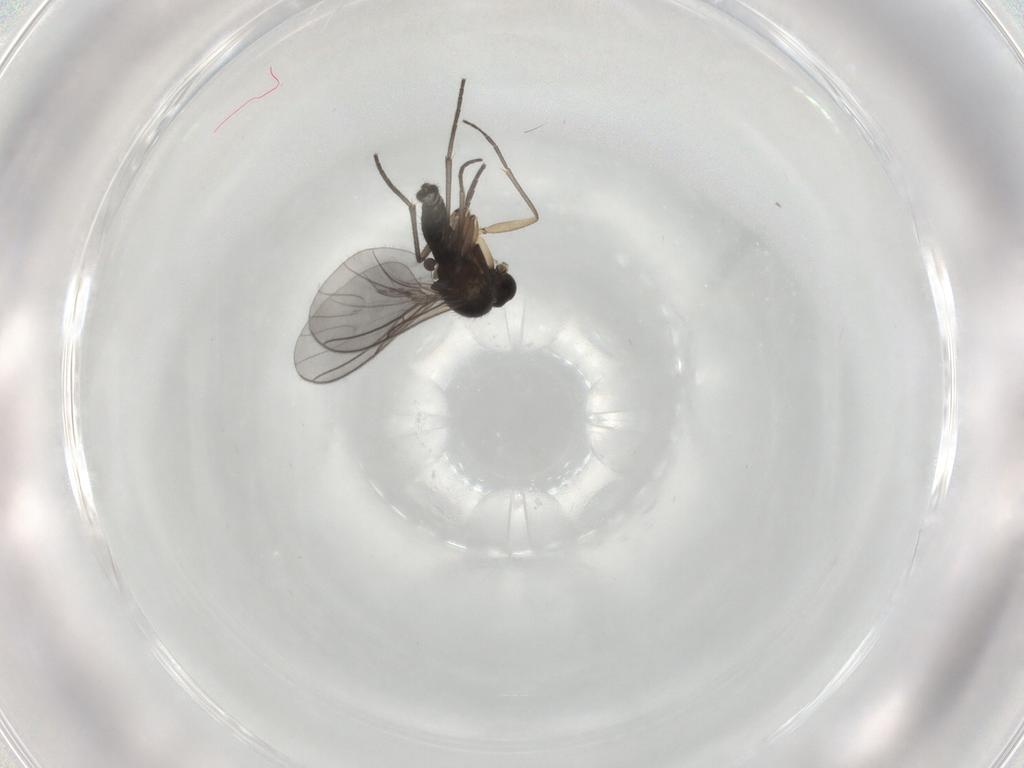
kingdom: Animalia
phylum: Arthropoda
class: Insecta
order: Diptera
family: Sciaridae
